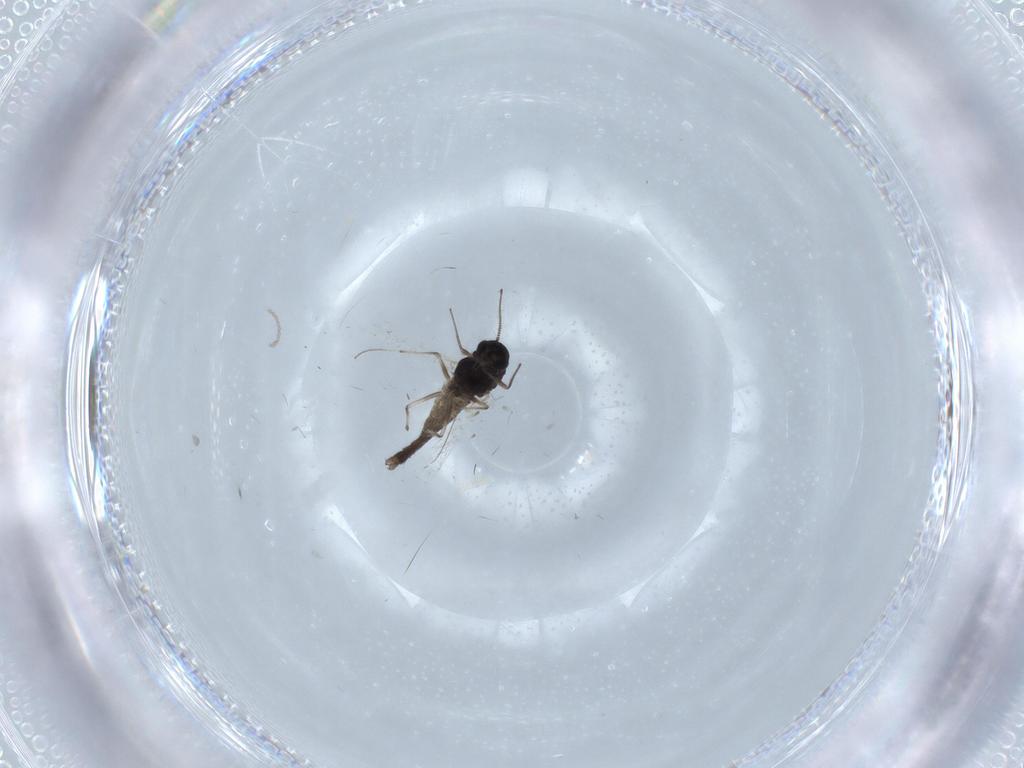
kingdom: Animalia
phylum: Arthropoda
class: Insecta
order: Diptera
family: Chironomidae
